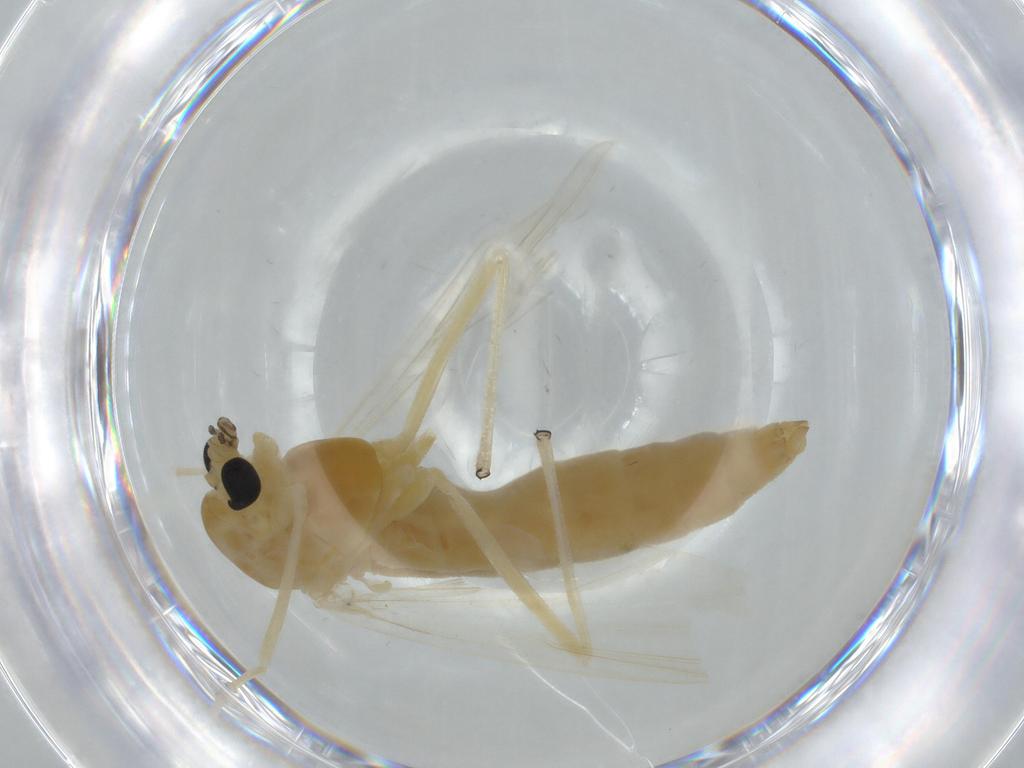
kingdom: Animalia
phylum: Arthropoda
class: Insecta
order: Diptera
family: Chironomidae
